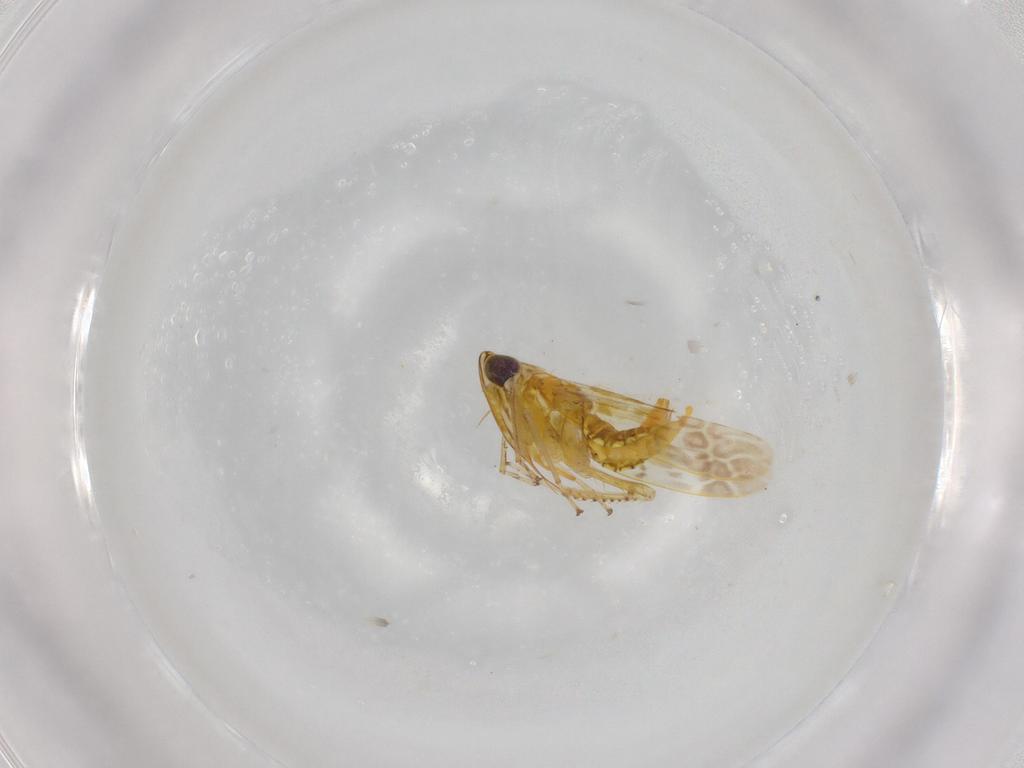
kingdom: Animalia
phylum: Arthropoda
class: Insecta
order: Hemiptera
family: Cicadellidae
